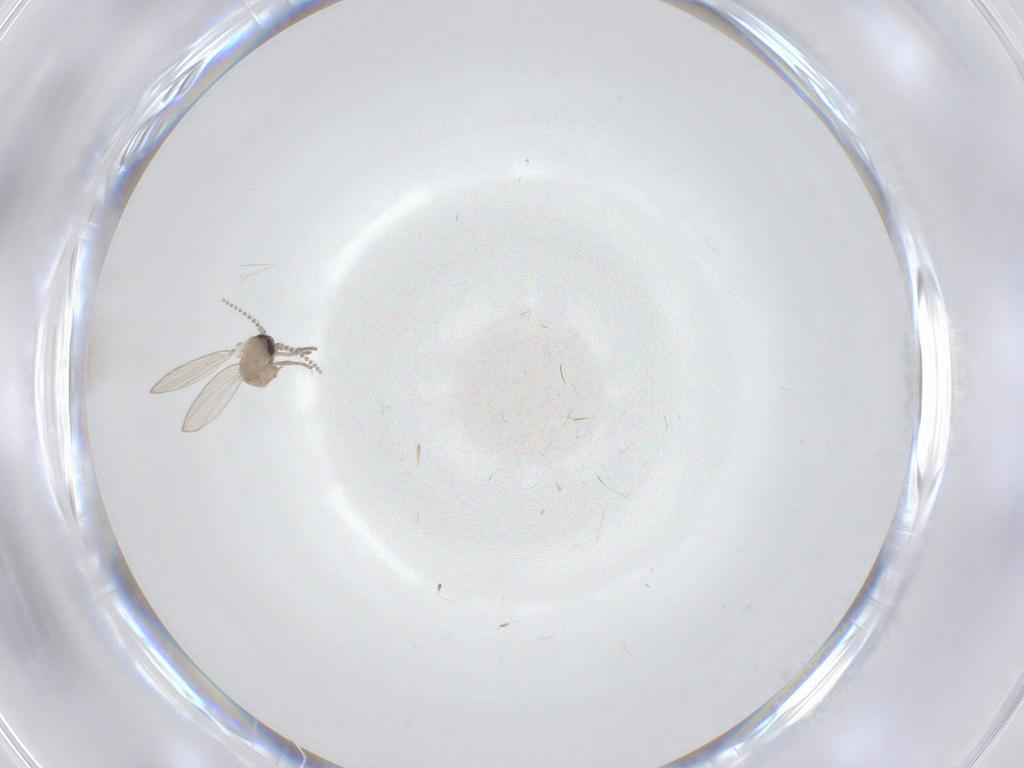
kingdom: Animalia
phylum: Arthropoda
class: Insecta
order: Diptera
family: Psychodidae
